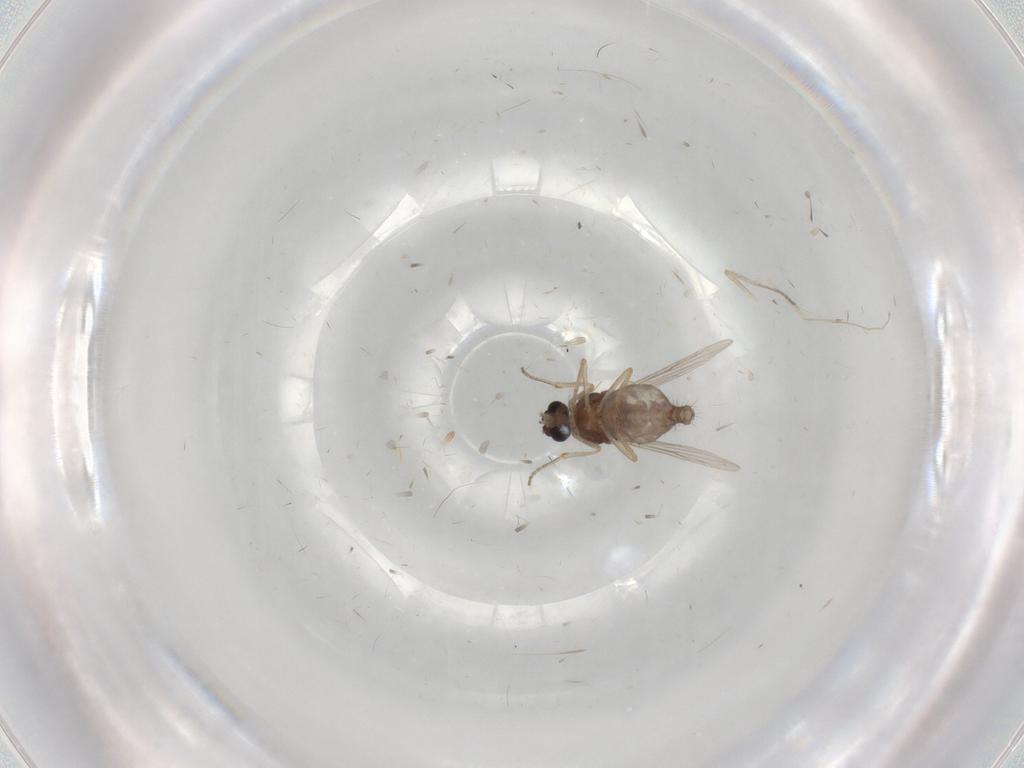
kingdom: Animalia
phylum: Arthropoda
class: Insecta
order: Diptera
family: Ceratopogonidae
